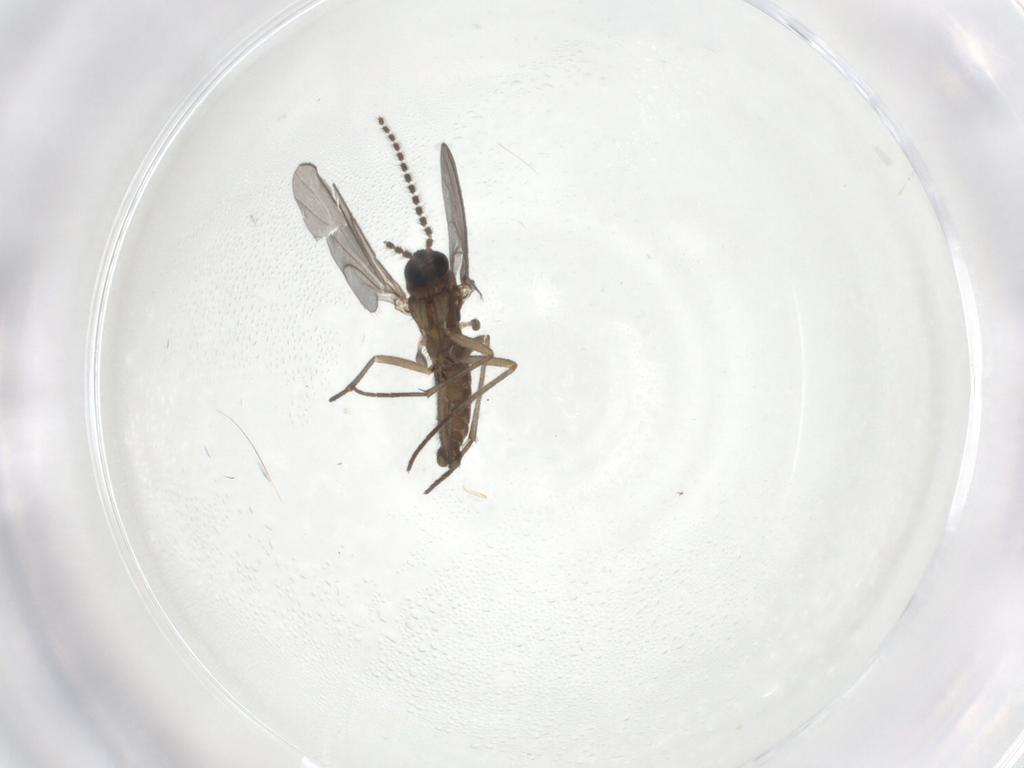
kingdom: Animalia
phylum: Arthropoda
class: Insecta
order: Diptera
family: Sciaridae
